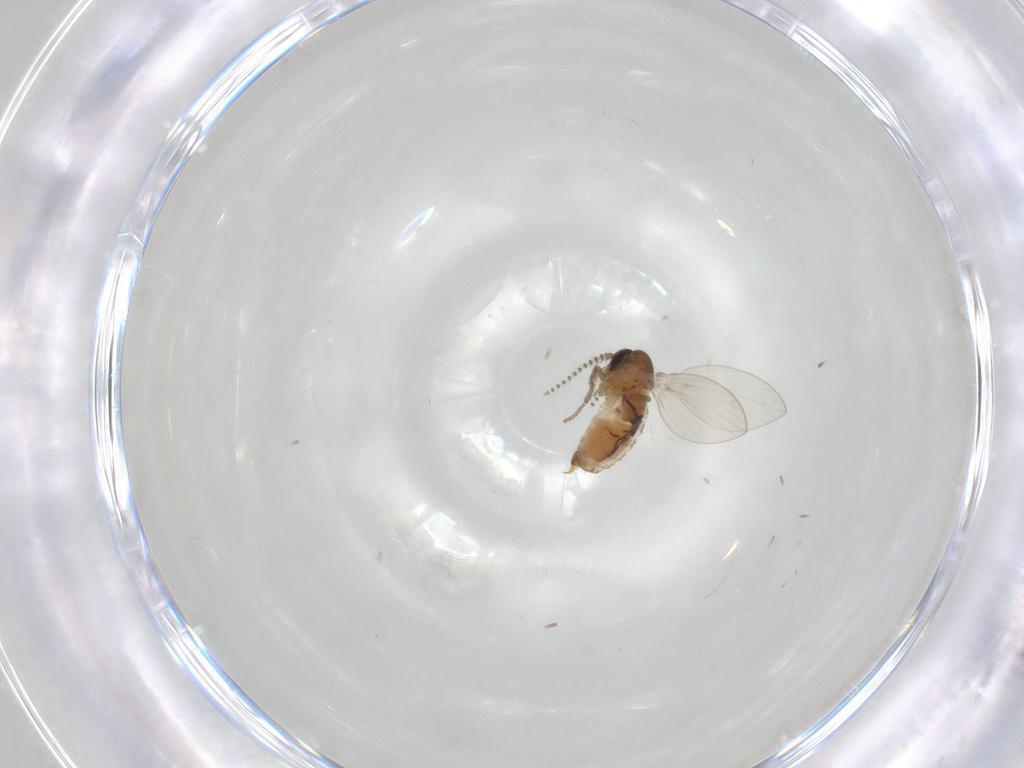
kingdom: Animalia
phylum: Arthropoda
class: Insecta
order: Diptera
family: Psychodidae
